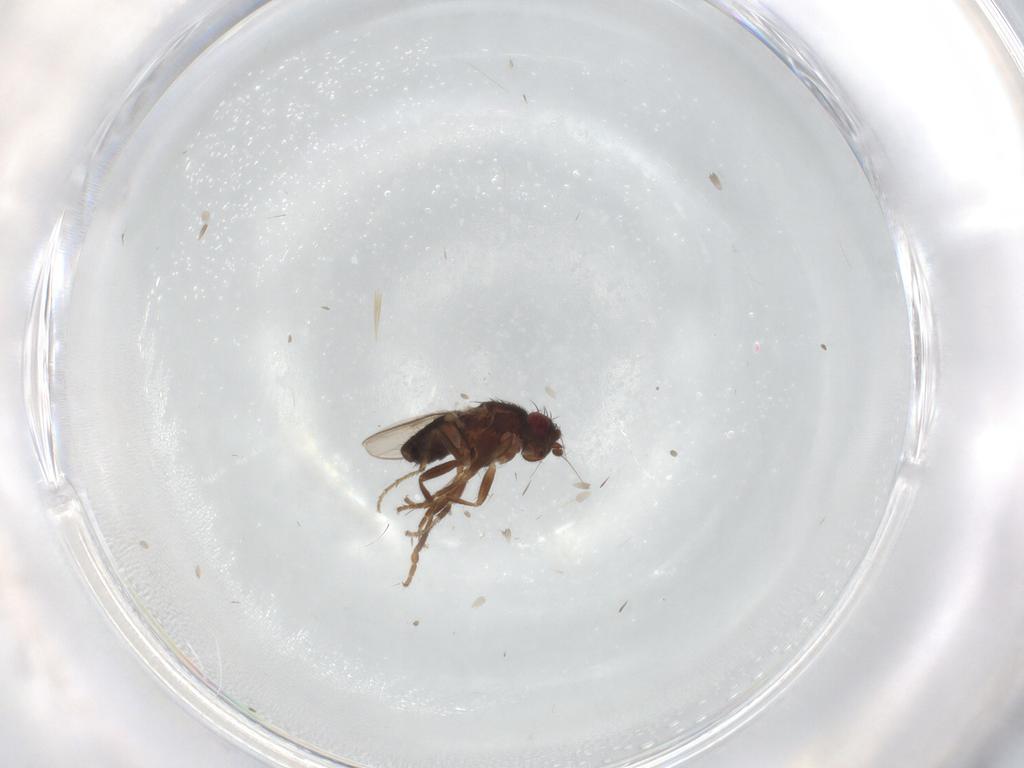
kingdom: Animalia
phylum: Arthropoda
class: Insecta
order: Diptera
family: Sphaeroceridae
